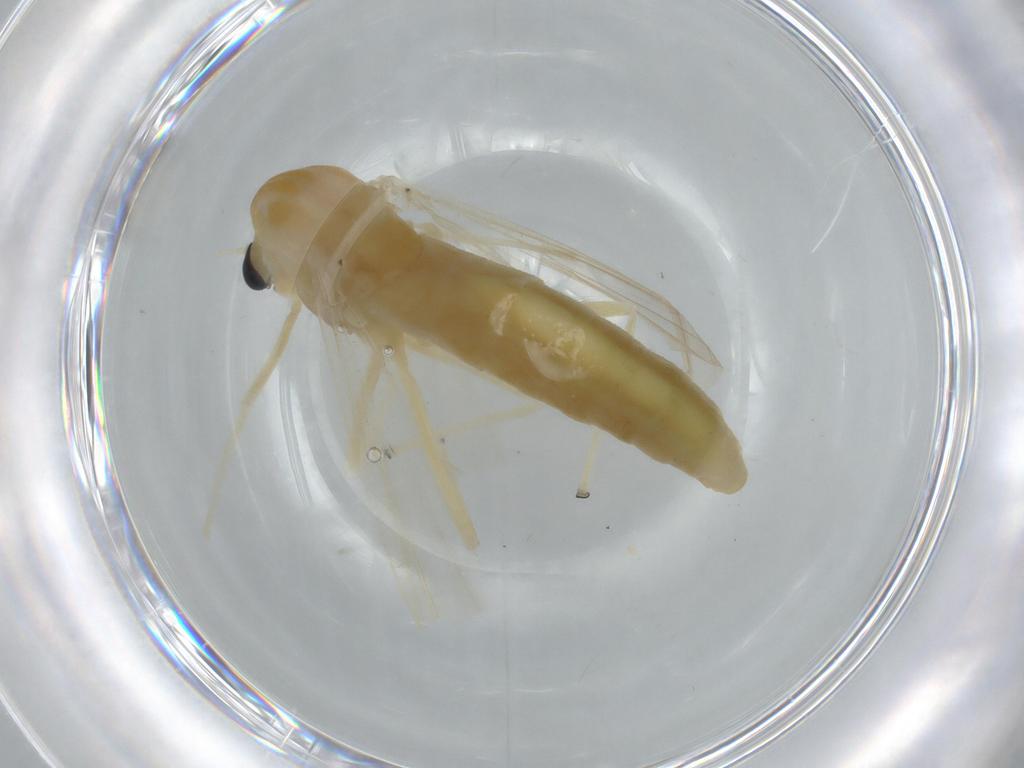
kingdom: Animalia
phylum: Arthropoda
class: Insecta
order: Diptera
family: Chironomidae
